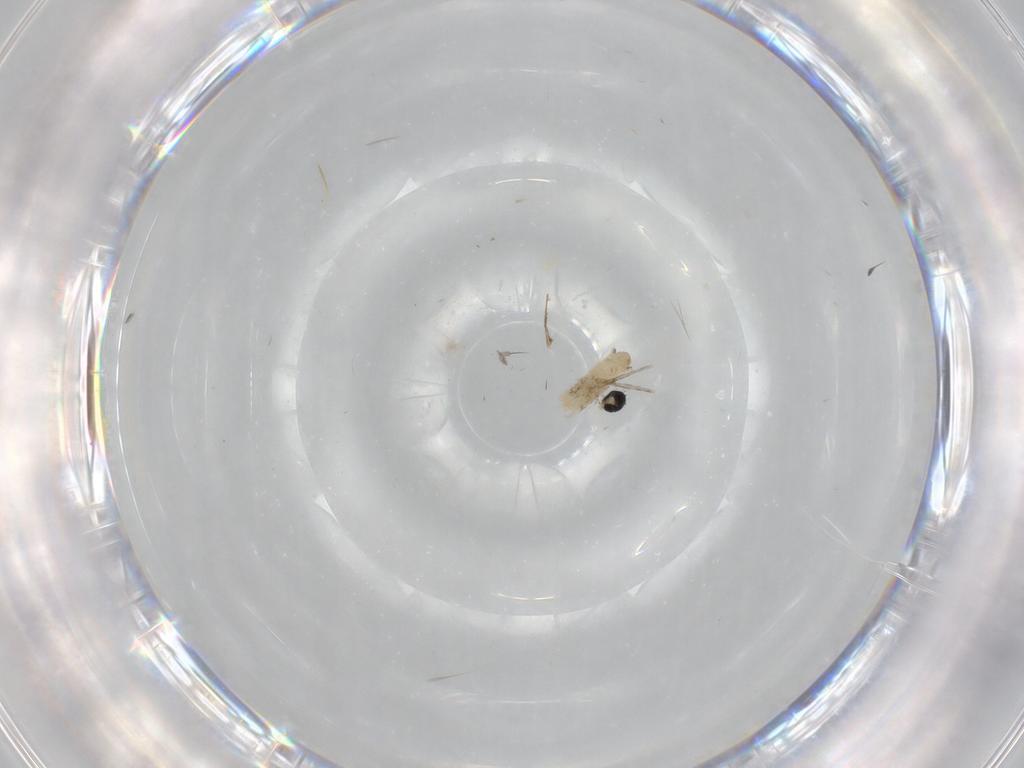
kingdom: Animalia
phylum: Arthropoda
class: Insecta
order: Diptera
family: Cecidomyiidae
